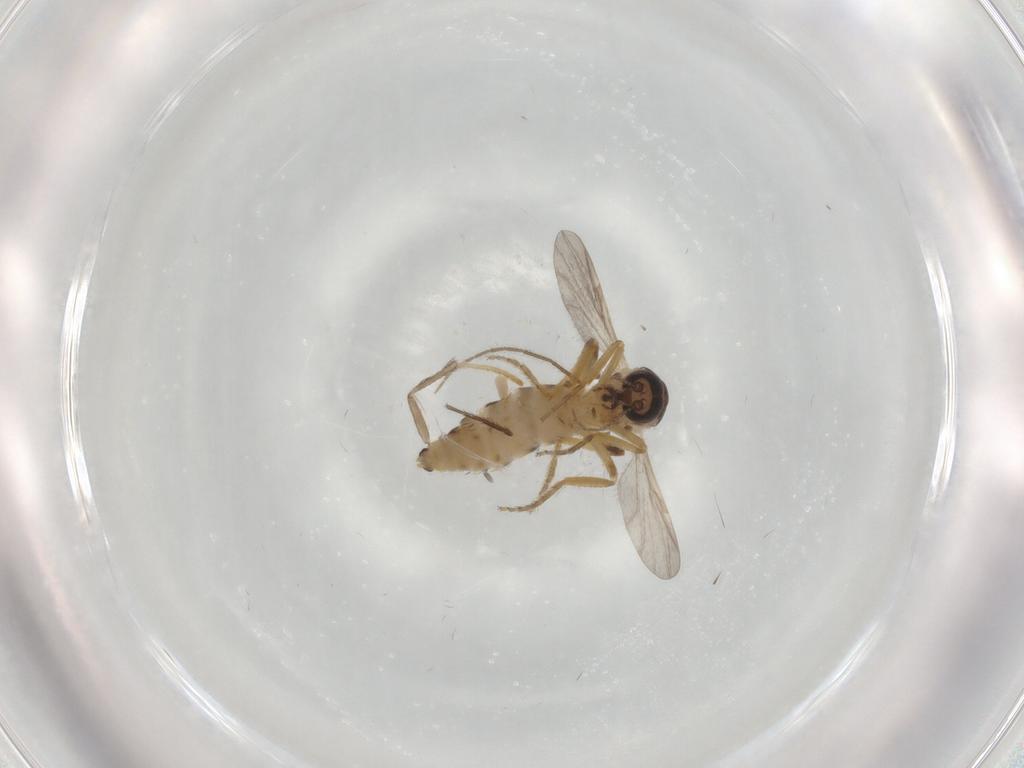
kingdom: Animalia
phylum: Arthropoda
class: Insecta
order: Diptera
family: Ceratopogonidae
